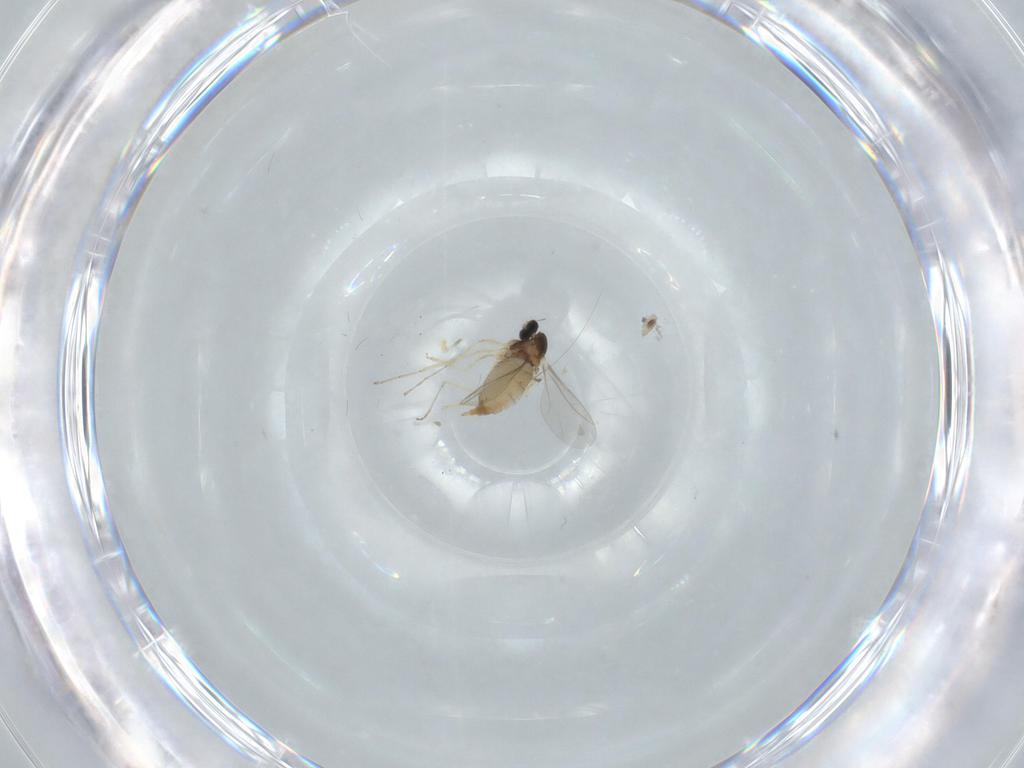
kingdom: Animalia
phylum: Arthropoda
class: Insecta
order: Diptera
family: Cecidomyiidae
